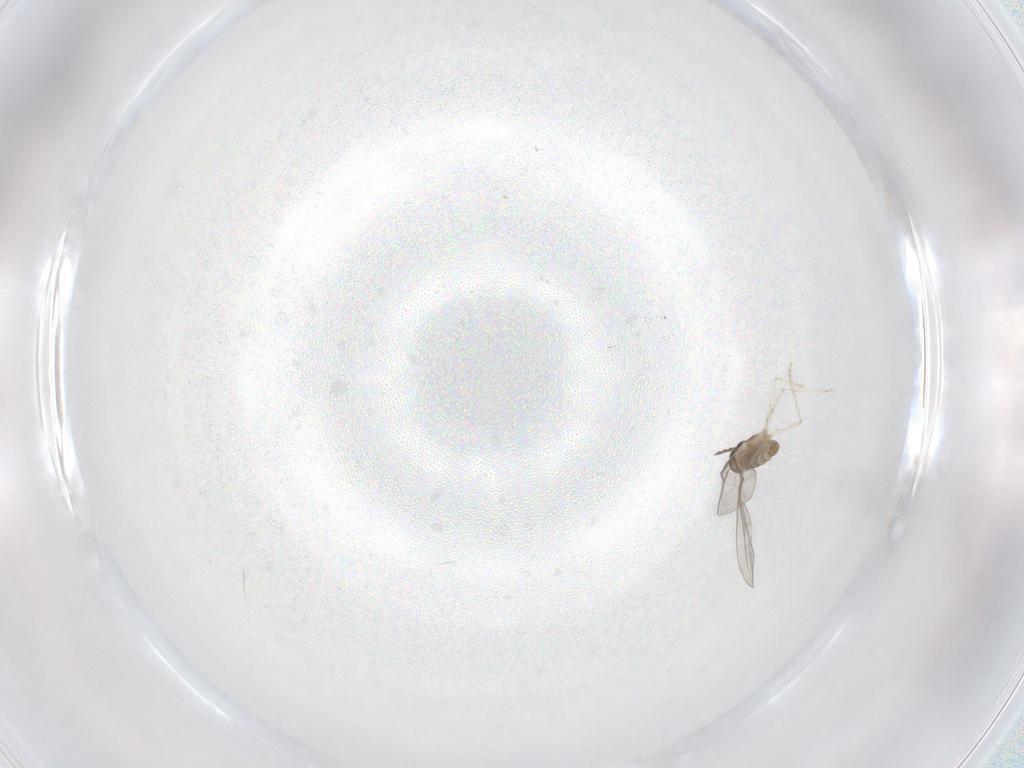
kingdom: Animalia
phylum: Arthropoda
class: Insecta
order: Diptera
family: Cecidomyiidae
